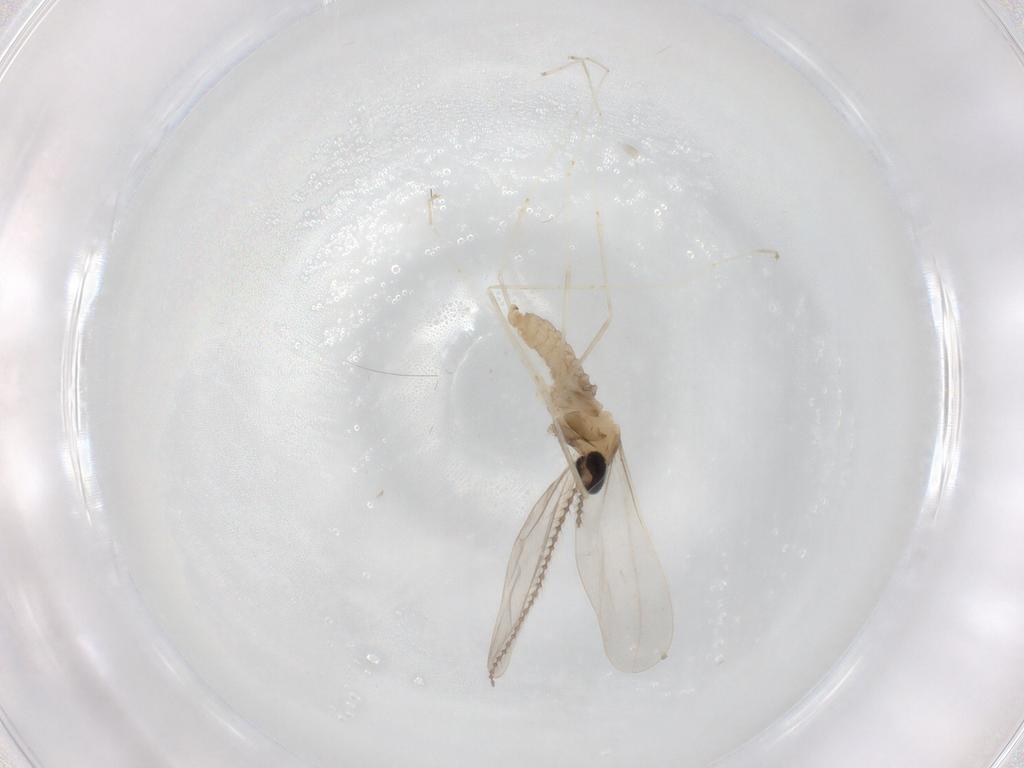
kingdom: Animalia
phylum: Arthropoda
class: Insecta
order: Diptera
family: Cecidomyiidae
